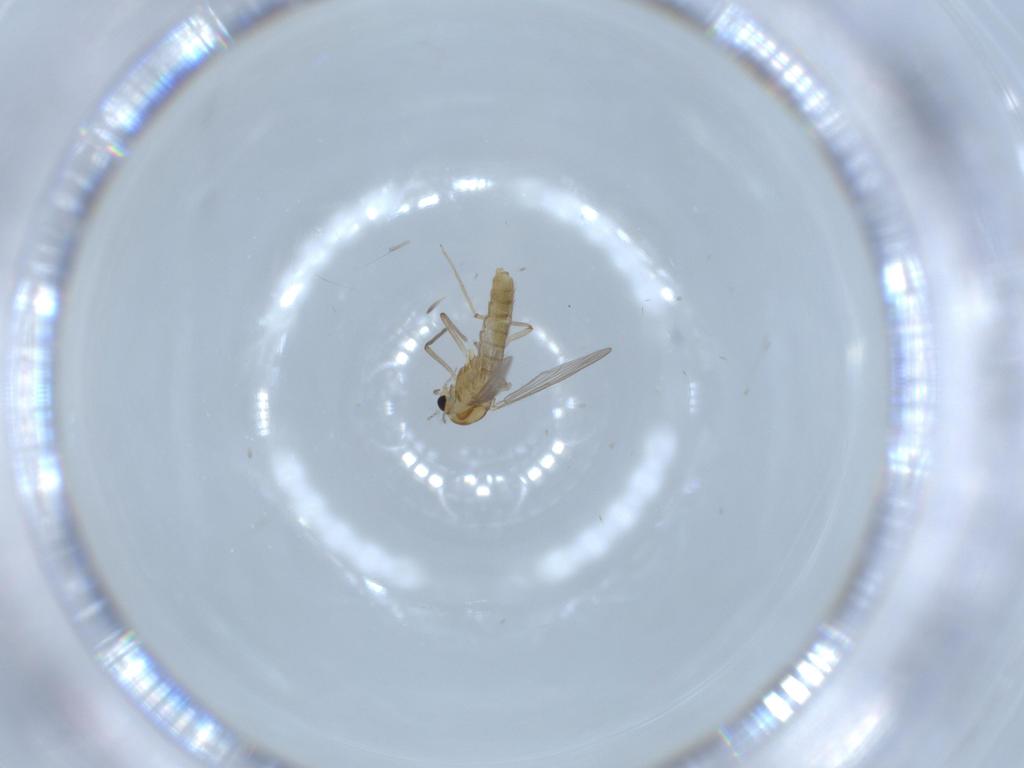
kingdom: Animalia
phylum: Arthropoda
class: Insecta
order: Diptera
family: Chironomidae
